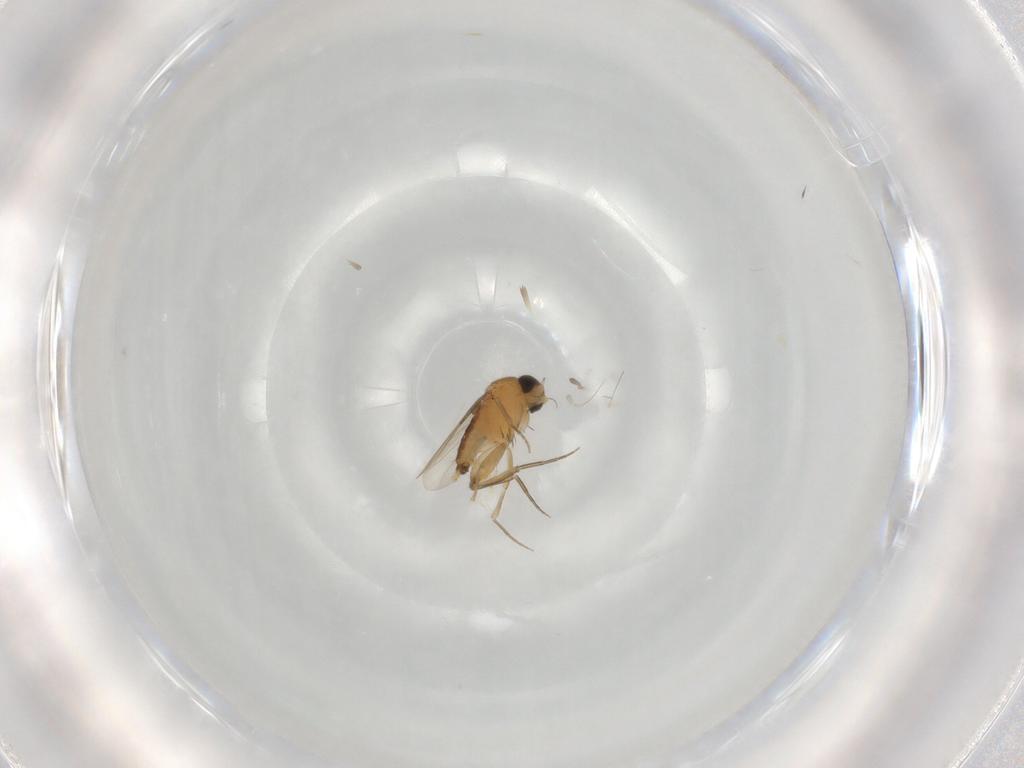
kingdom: Animalia
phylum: Arthropoda
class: Insecta
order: Diptera
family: Phoridae
